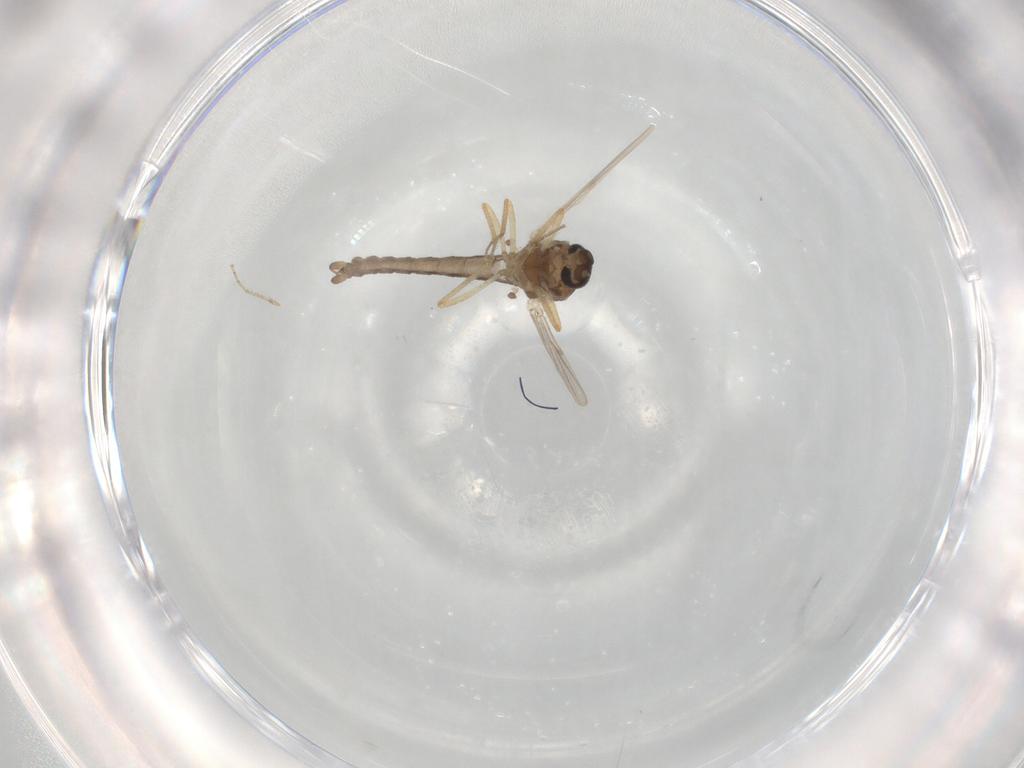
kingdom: Animalia
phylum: Arthropoda
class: Insecta
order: Diptera
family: Ceratopogonidae
